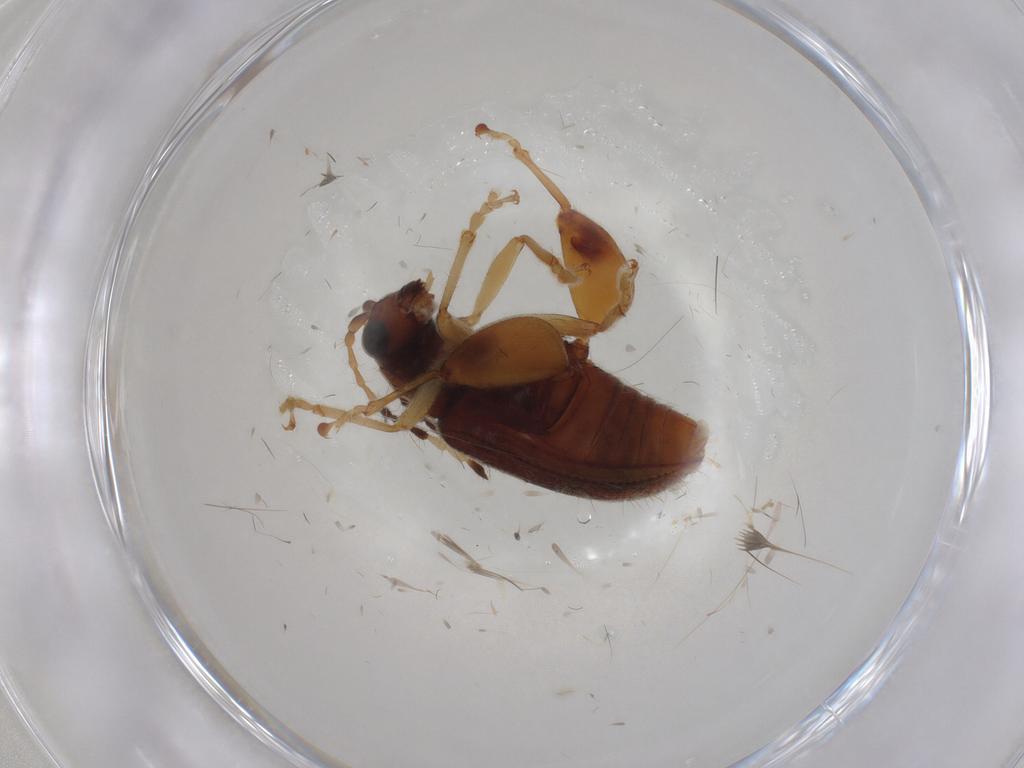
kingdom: Animalia
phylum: Arthropoda
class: Insecta
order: Coleoptera
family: Chrysomelidae
